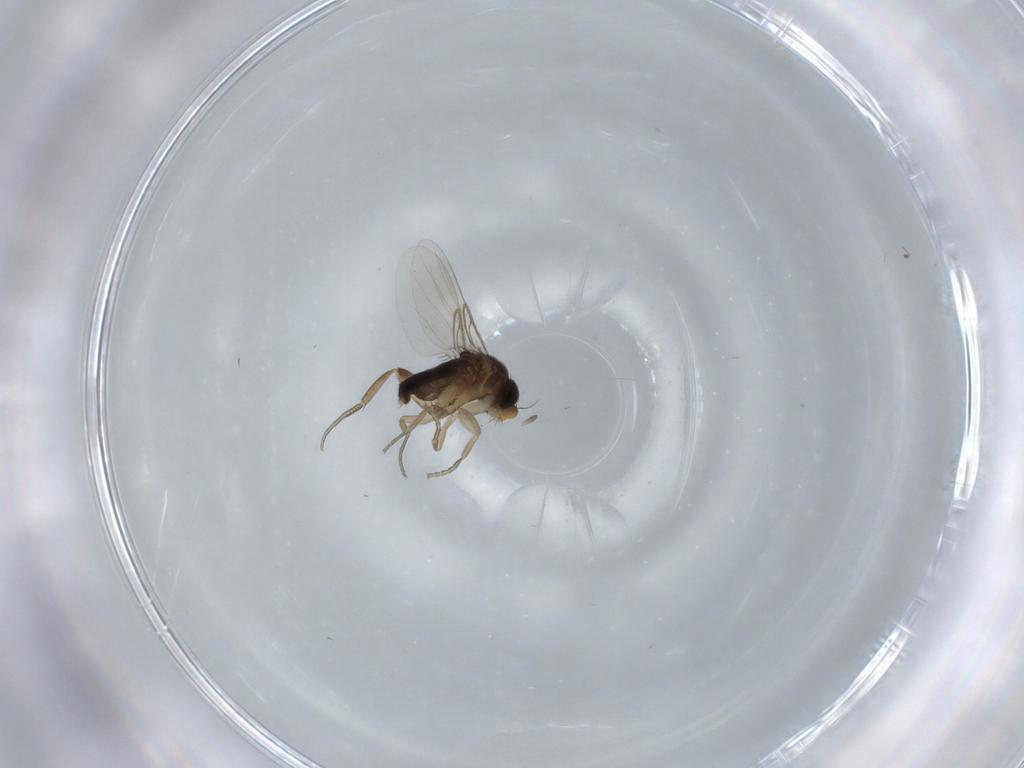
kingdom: Animalia
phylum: Arthropoda
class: Insecta
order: Diptera
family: Phoridae
